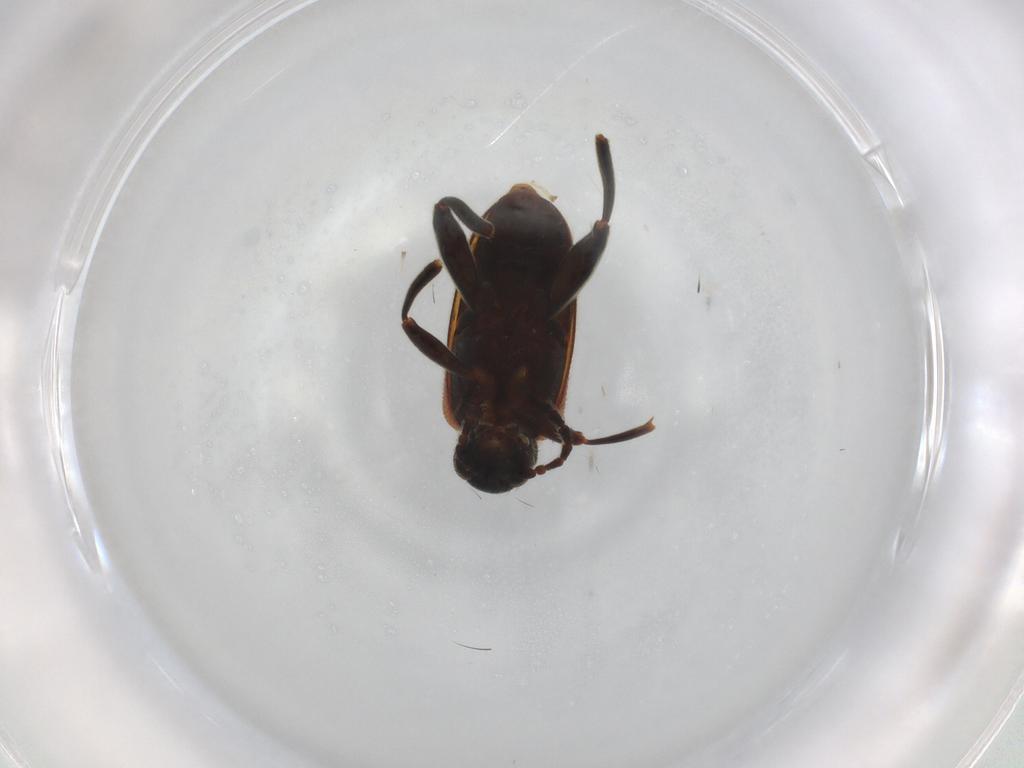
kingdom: Animalia
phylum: Arthropoda
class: Insecta
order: Coleoptera
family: Aderidae
